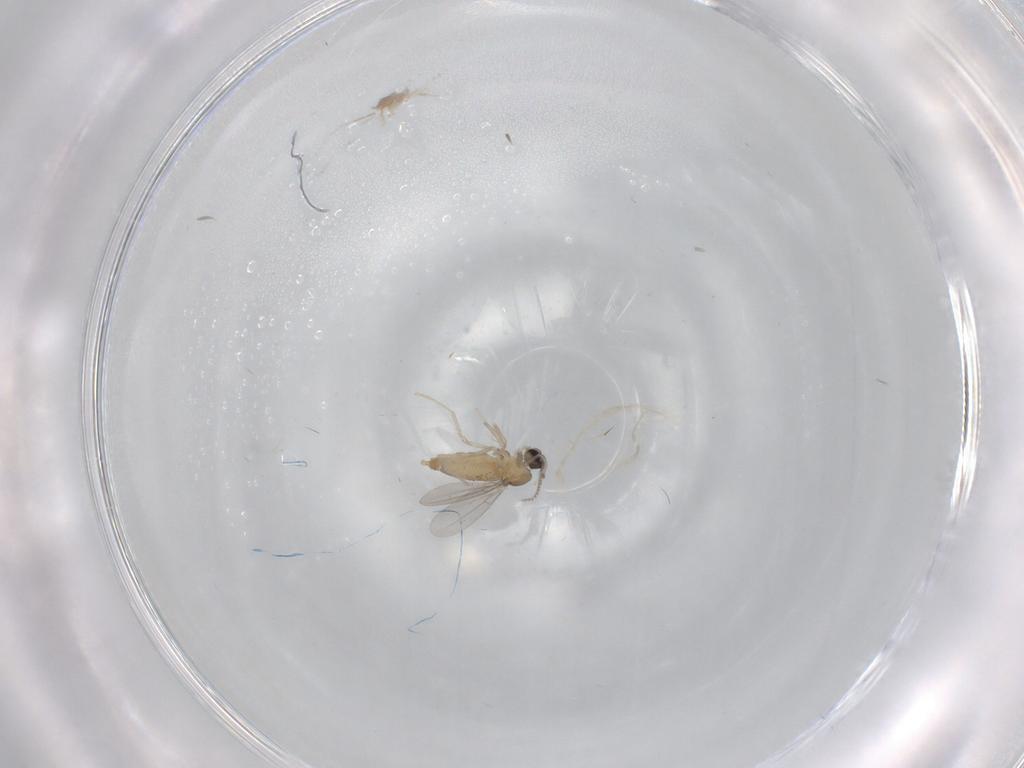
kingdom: Animalia
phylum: Arthropoda
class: Insecta
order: Diptera
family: Cecidomyiidae
